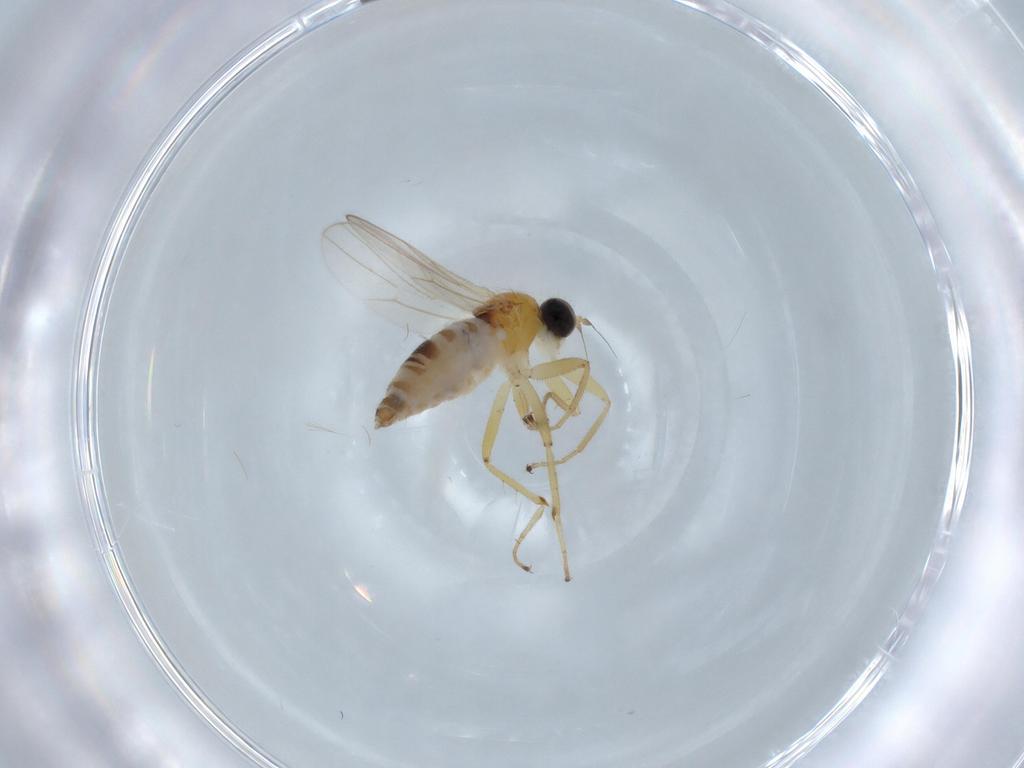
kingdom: Animalia
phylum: Arthropoda
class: Insecta
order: Diptera
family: Hybotidae
